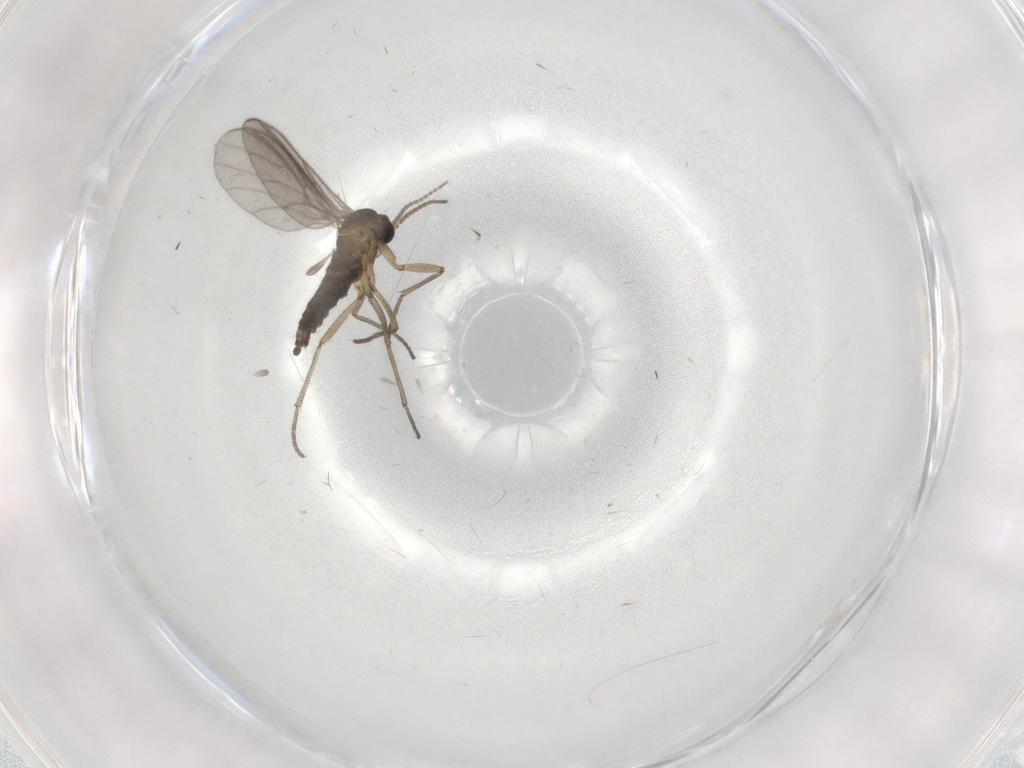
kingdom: Animalia
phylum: Arthropoda
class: Insecta
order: Diptera
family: Sciaridae
